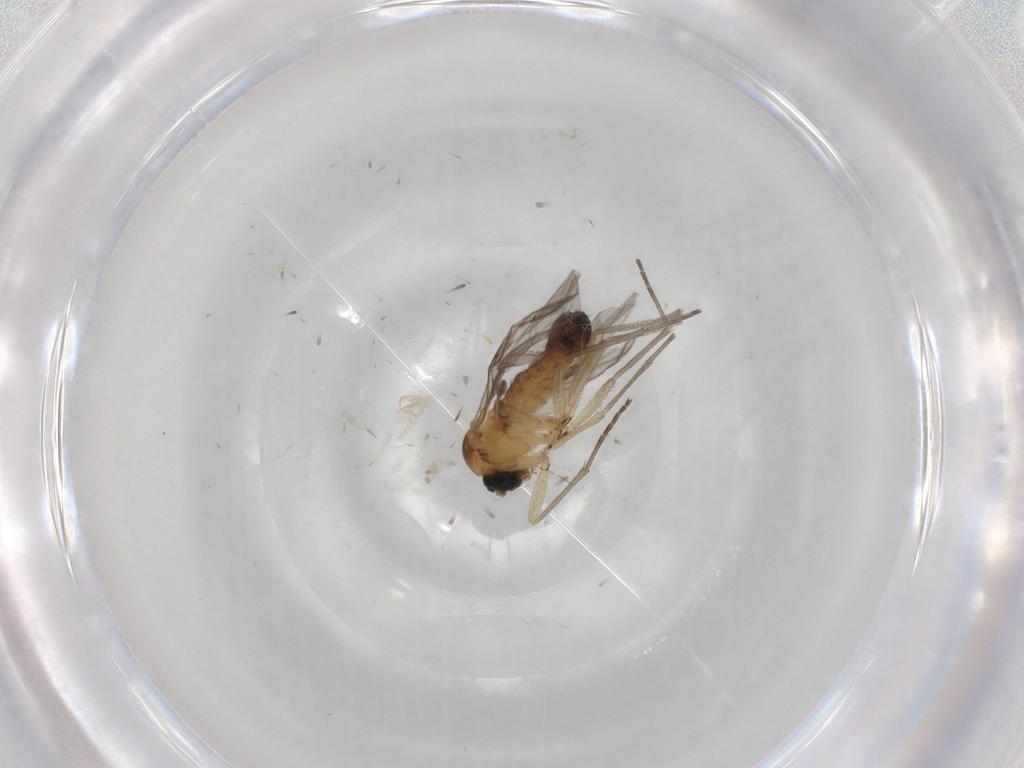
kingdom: Animalia
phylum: Arthropoda
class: Insecta
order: Diptera
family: Sciaridae
